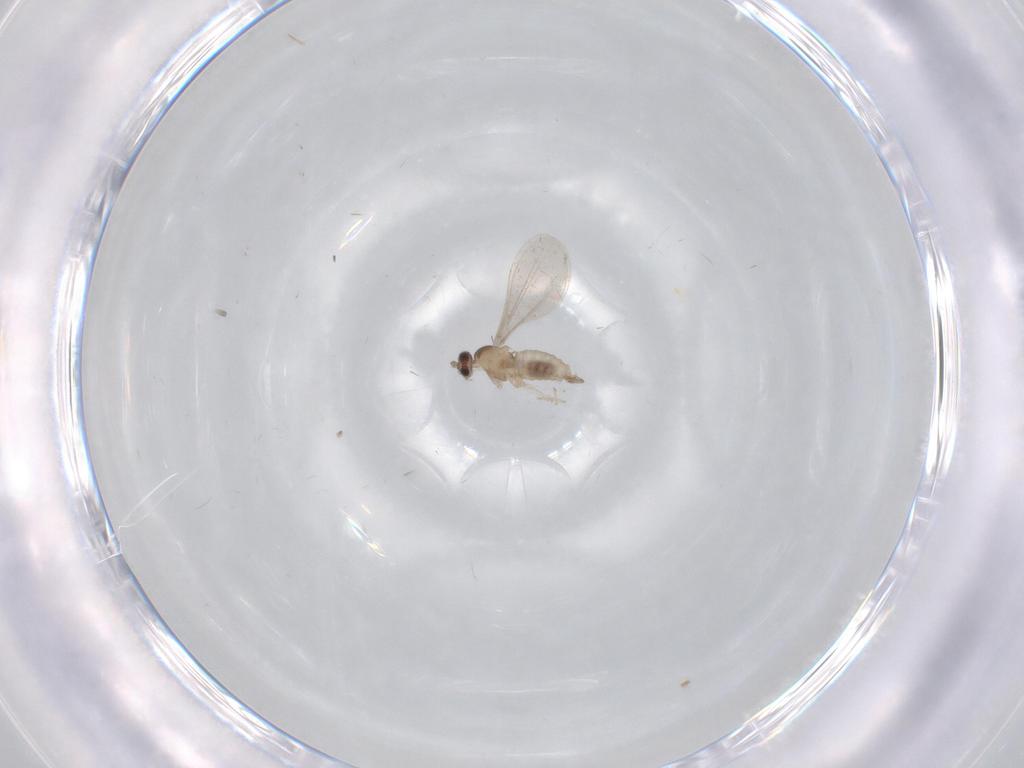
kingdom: Animalia
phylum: Arthropoda
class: Insecta
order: Diptera
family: Cecidomyiidae
